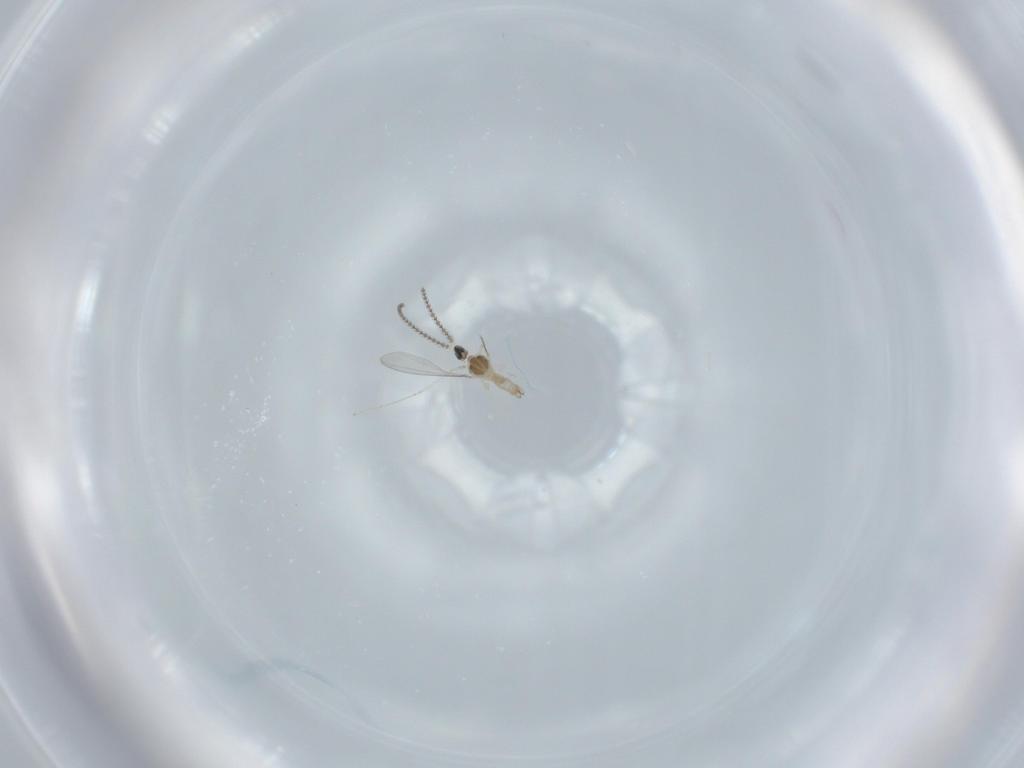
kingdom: Animalia
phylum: Arthropoda
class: Insecta
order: Diptera
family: Cecidomyiidae
